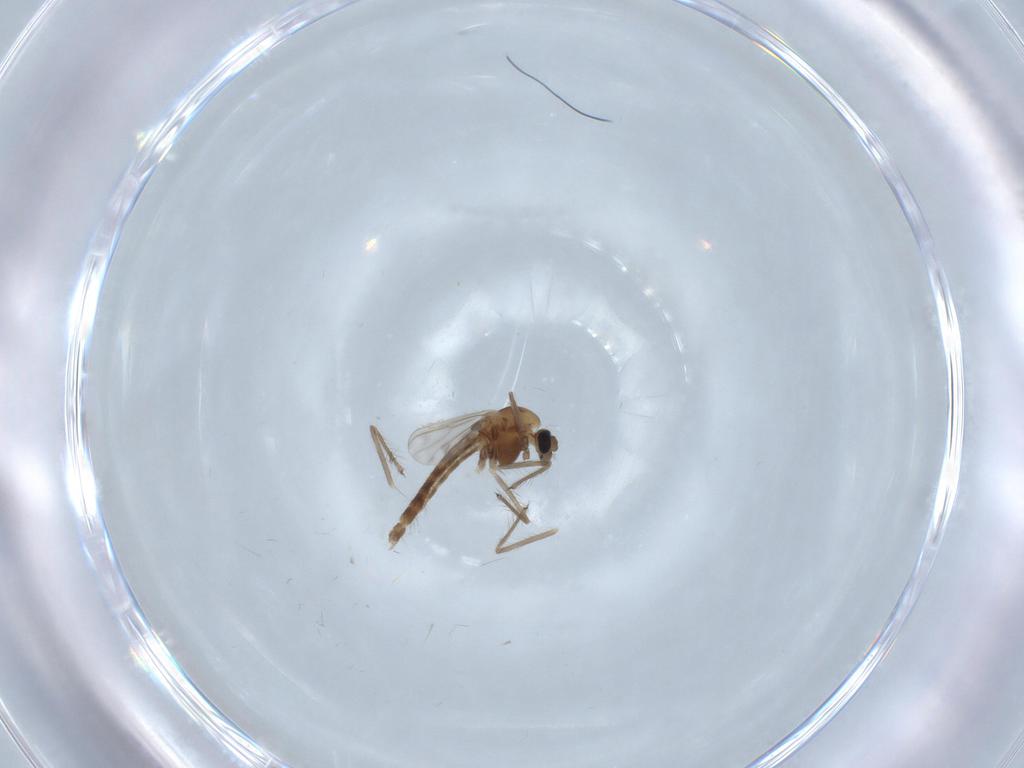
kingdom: Animalia
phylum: Arthropoda
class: Insecta
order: Diptera
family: Chironomidae
